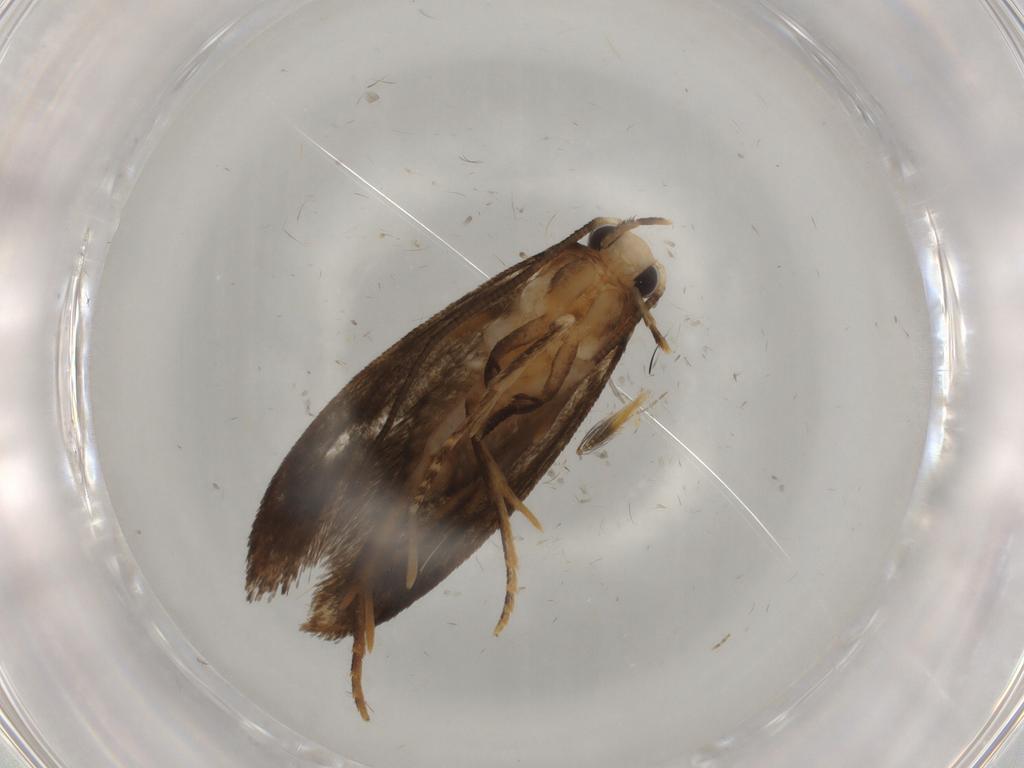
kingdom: Animalia
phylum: Arthropoda
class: Insecta
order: Lepidoptera
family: Tineidae
